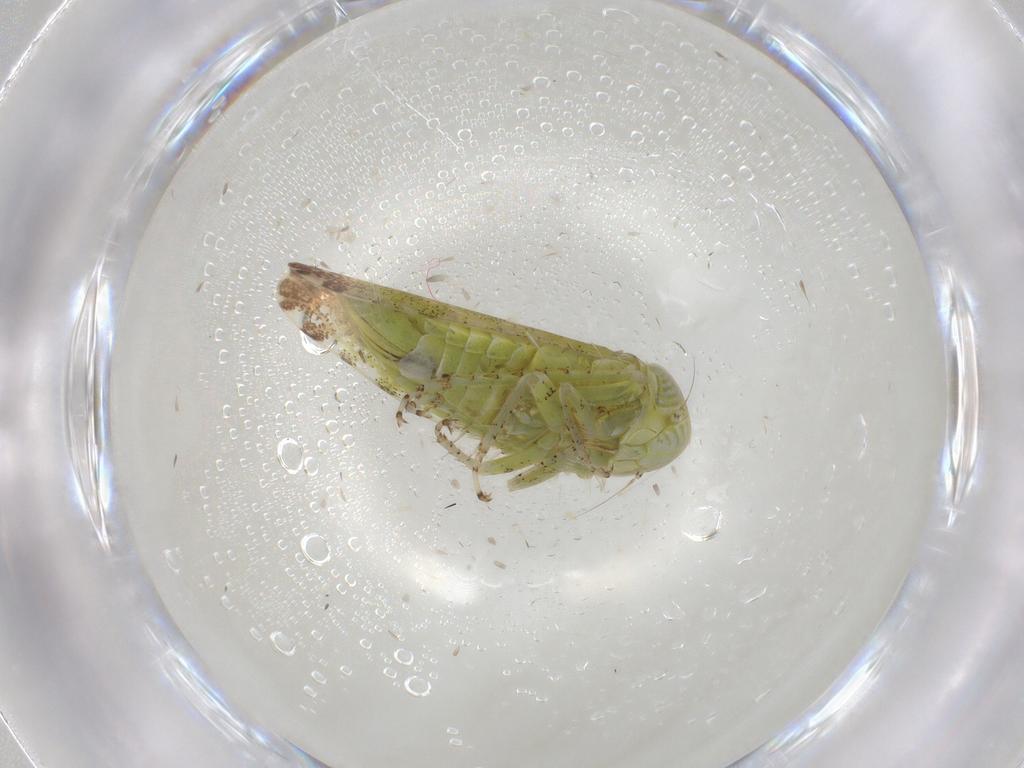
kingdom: Animalia
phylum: Arthropoda
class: Insecta
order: Hemiptera
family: Cicadellidae
